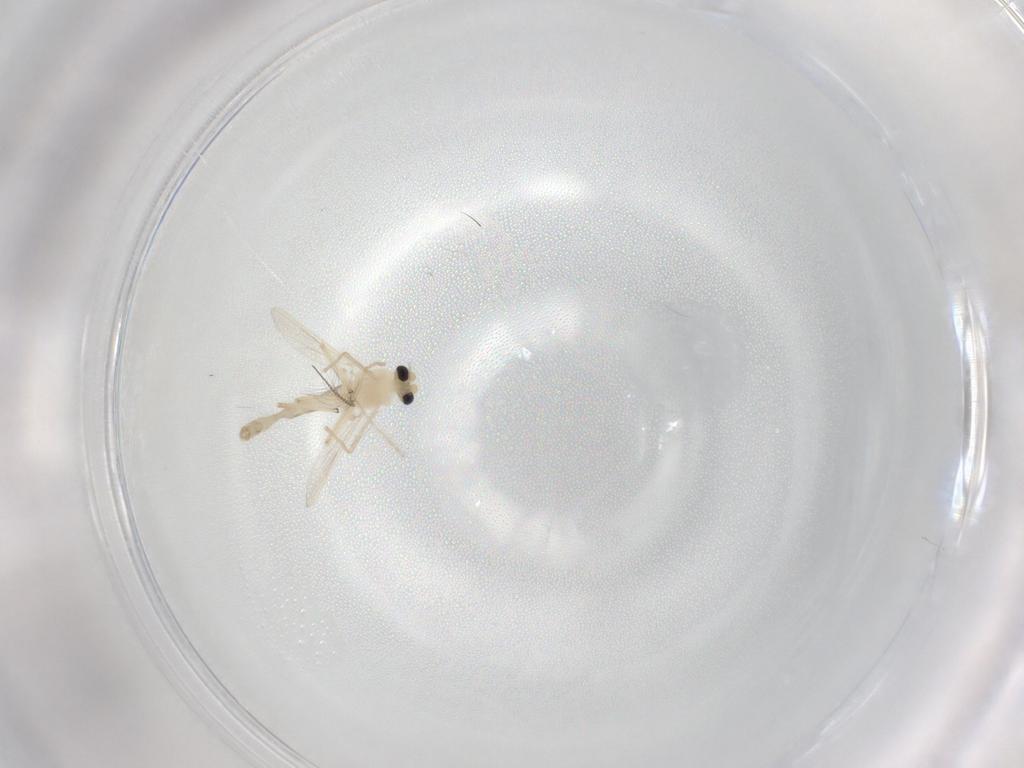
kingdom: Animalia
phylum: Arthropoda
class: Insecta
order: Diptera
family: Chironomidae
